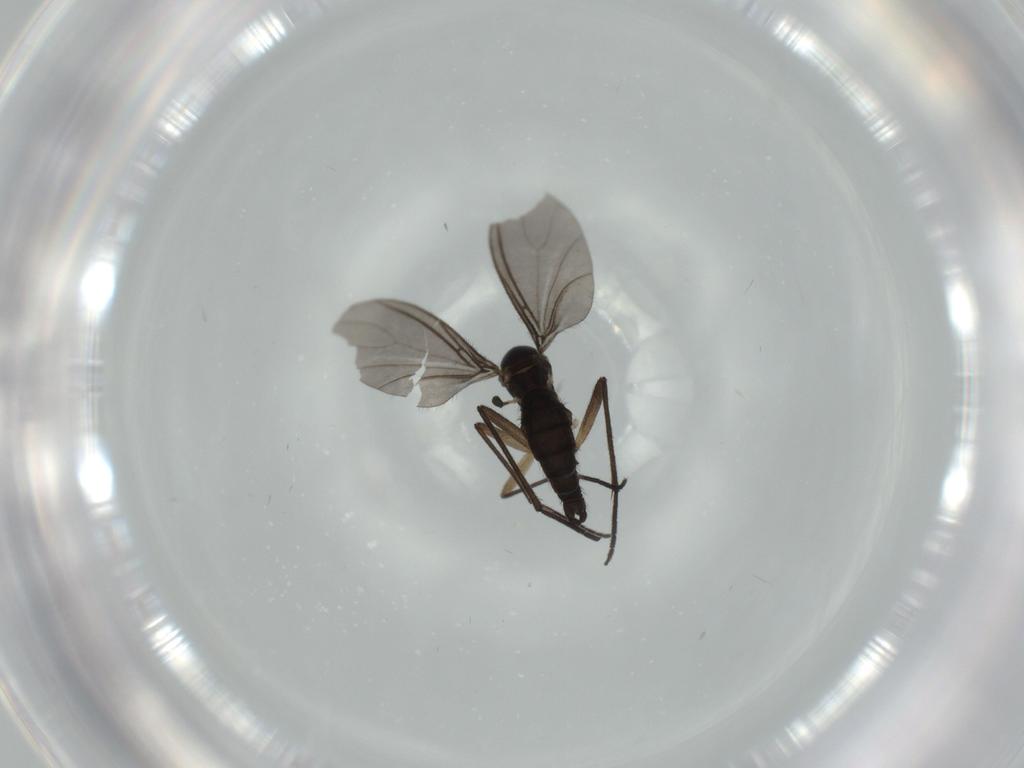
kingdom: Animalia
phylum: Arthropoda
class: Insecta
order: Diptera
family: Sciaridae
